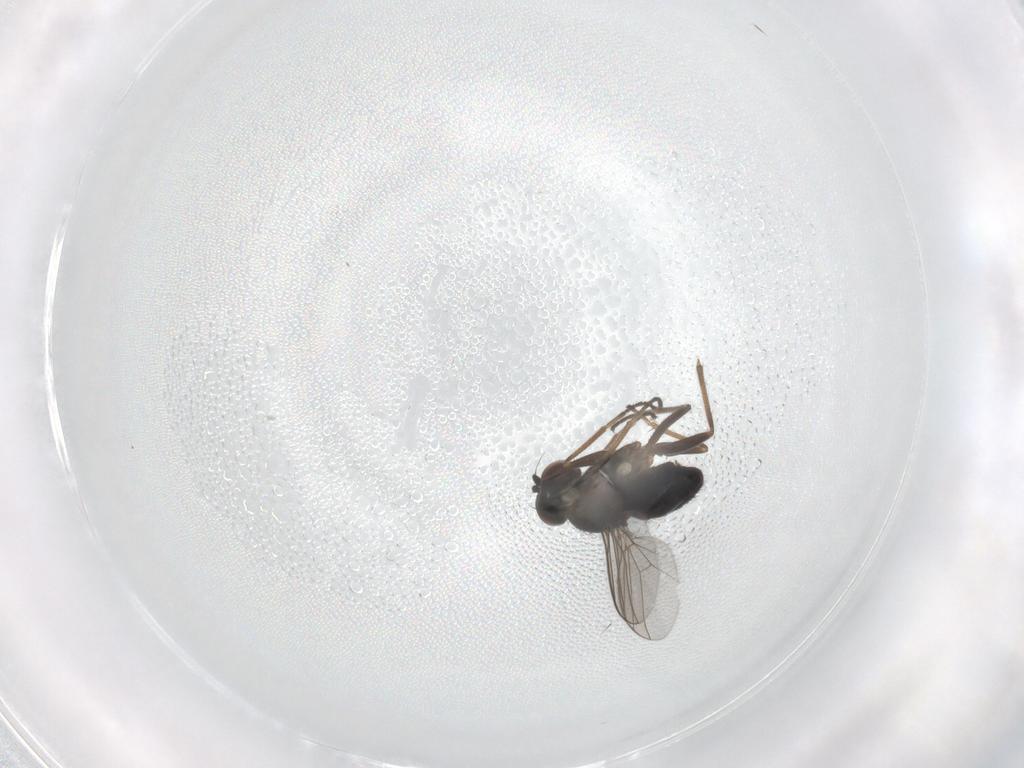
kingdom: Animalia
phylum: Arthropoda
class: Insecta
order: Diptera
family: Dolichopodidae
